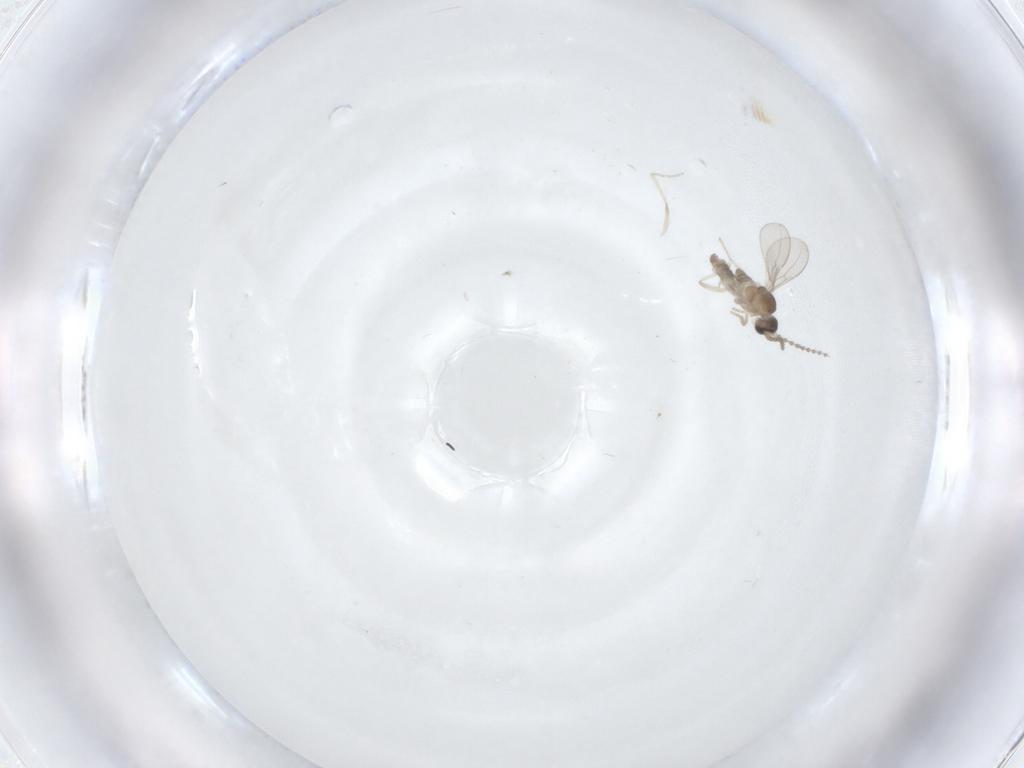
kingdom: Animalia
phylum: Arthropoda
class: Insecta
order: Diptera
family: Cecidomyiidae
